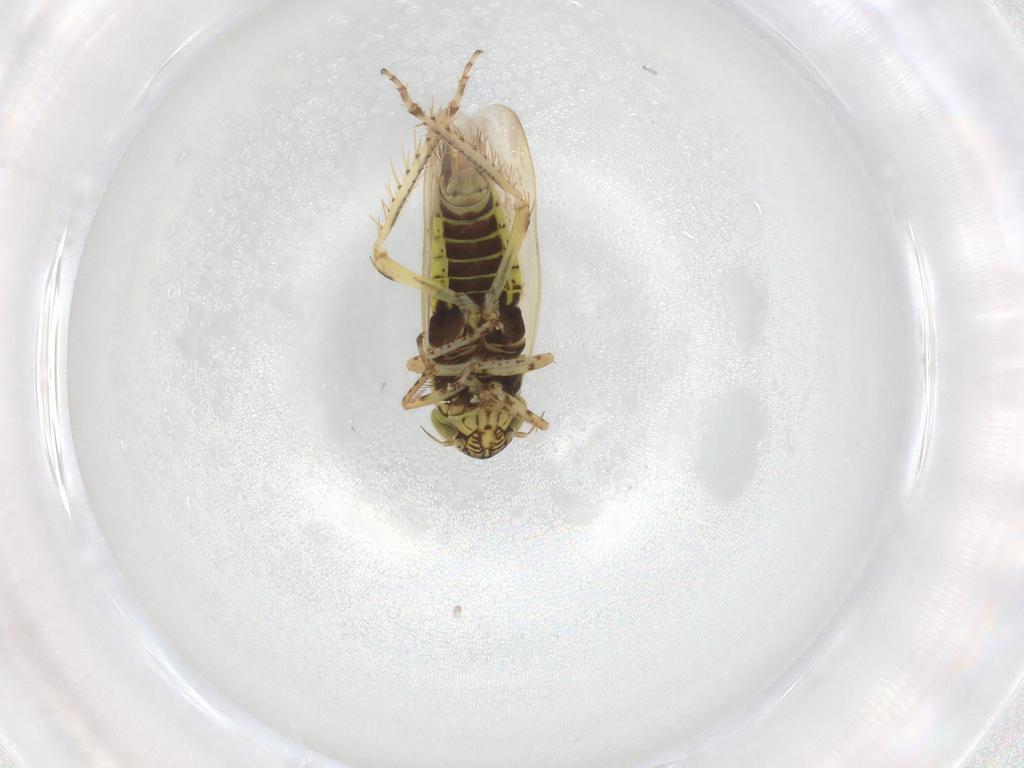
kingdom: Animalia
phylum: Arthropoda
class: Insecta
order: Hemiptera
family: Cicadellidae
